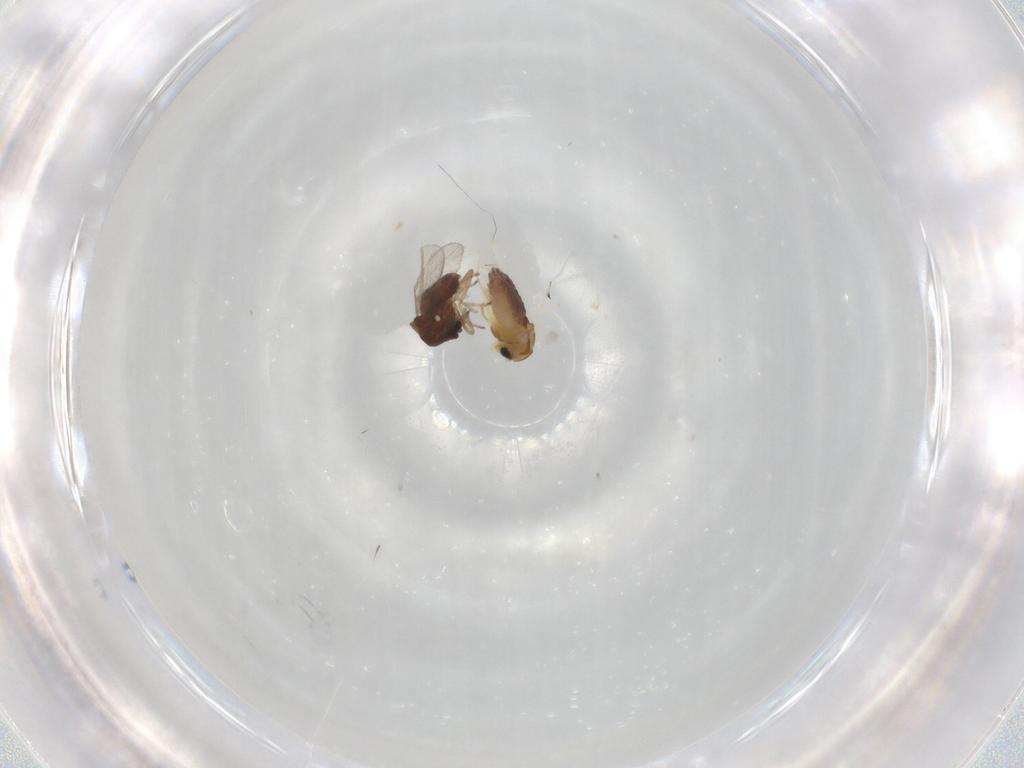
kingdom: Animalia
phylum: Arthropoda
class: Insecta
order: Diptera
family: Chironomidae
